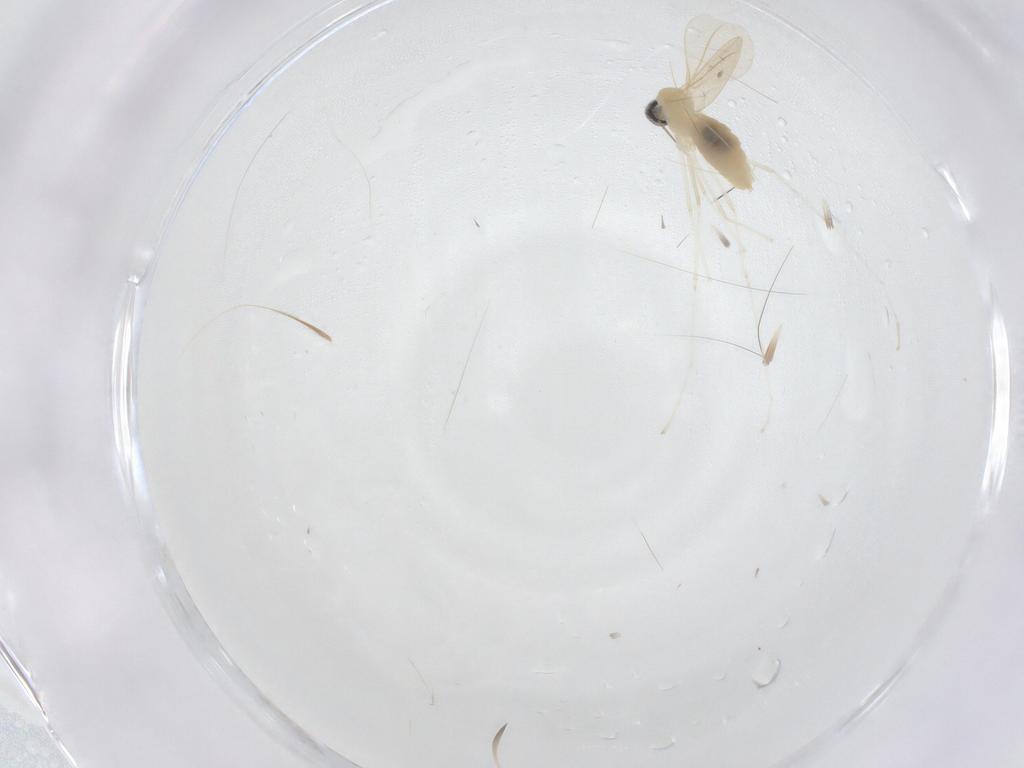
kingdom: Animalia
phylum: Arthropoda
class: Insecta
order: Diptera
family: Cecidomyiidae
